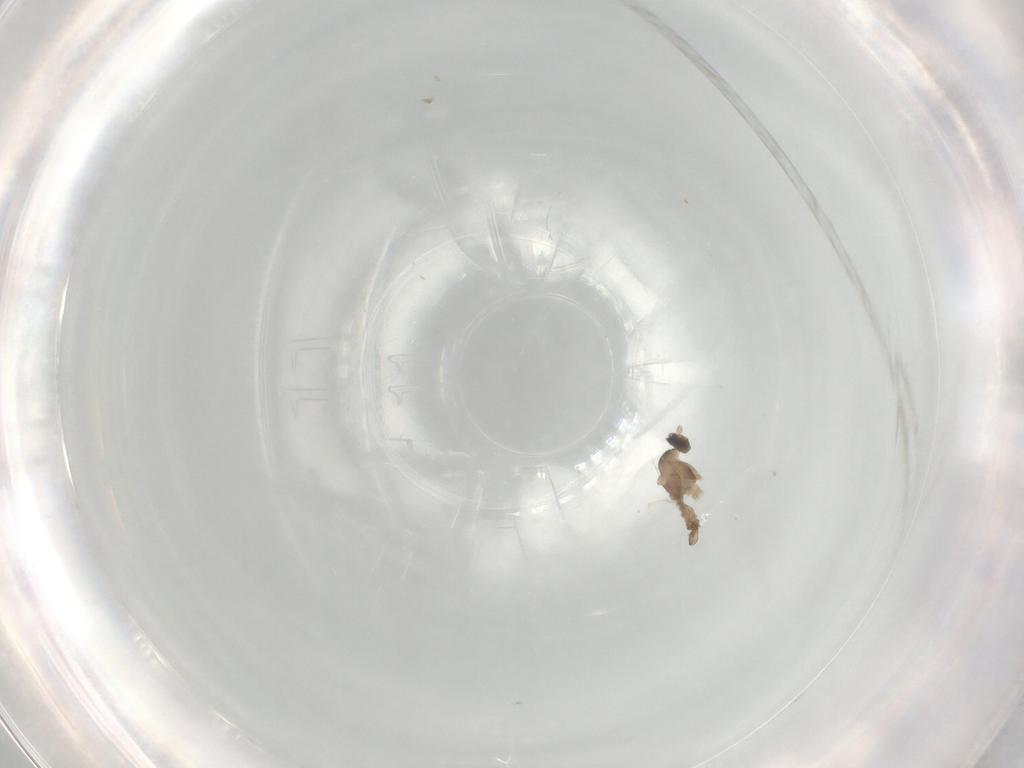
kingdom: Animalia
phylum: Arthropoda
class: Insecta
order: Diptera
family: Cecidomyiidae
